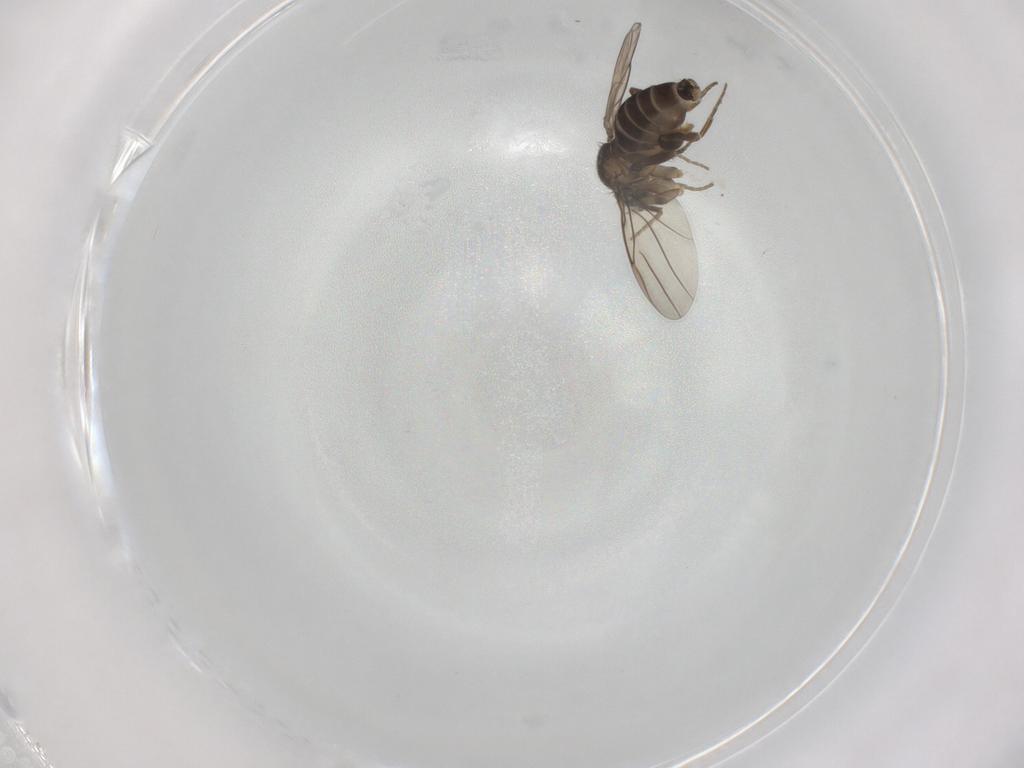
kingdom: Animalia
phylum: Arthropoda
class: Insecta
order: Diptera
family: Phoridae
